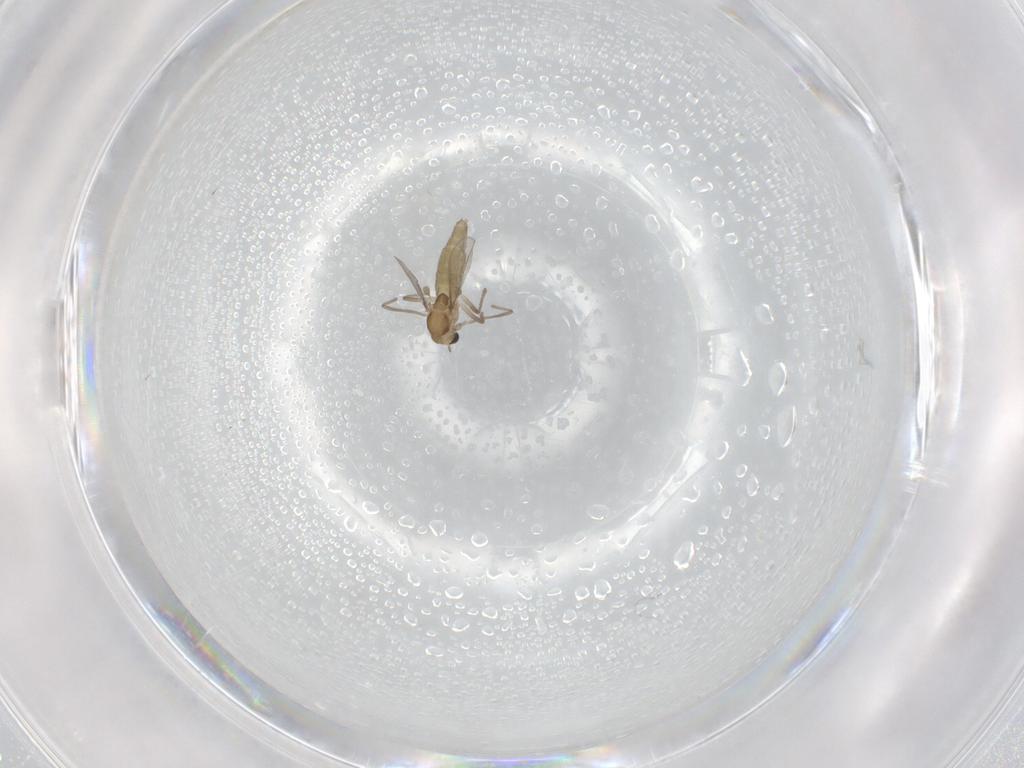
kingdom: Animalia
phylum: Arthropoda
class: Insecta
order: Diptera
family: Chironomidae
